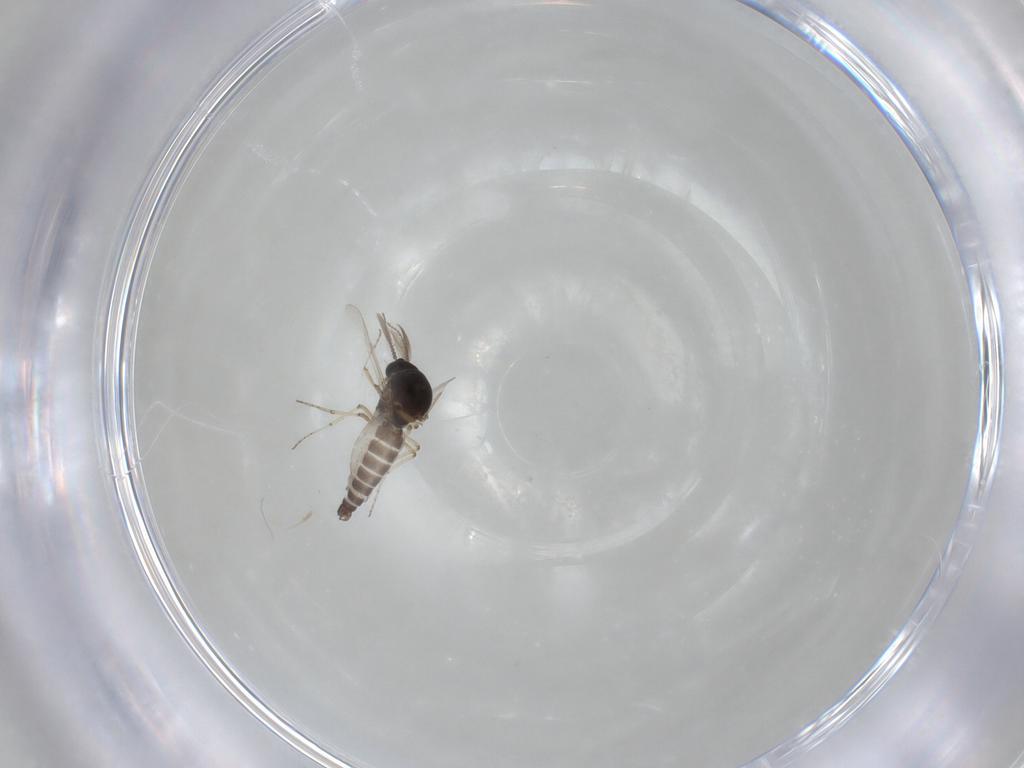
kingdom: Animalia
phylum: Arthropoda
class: Insecta
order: Diptera
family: Ceratopogonidae
